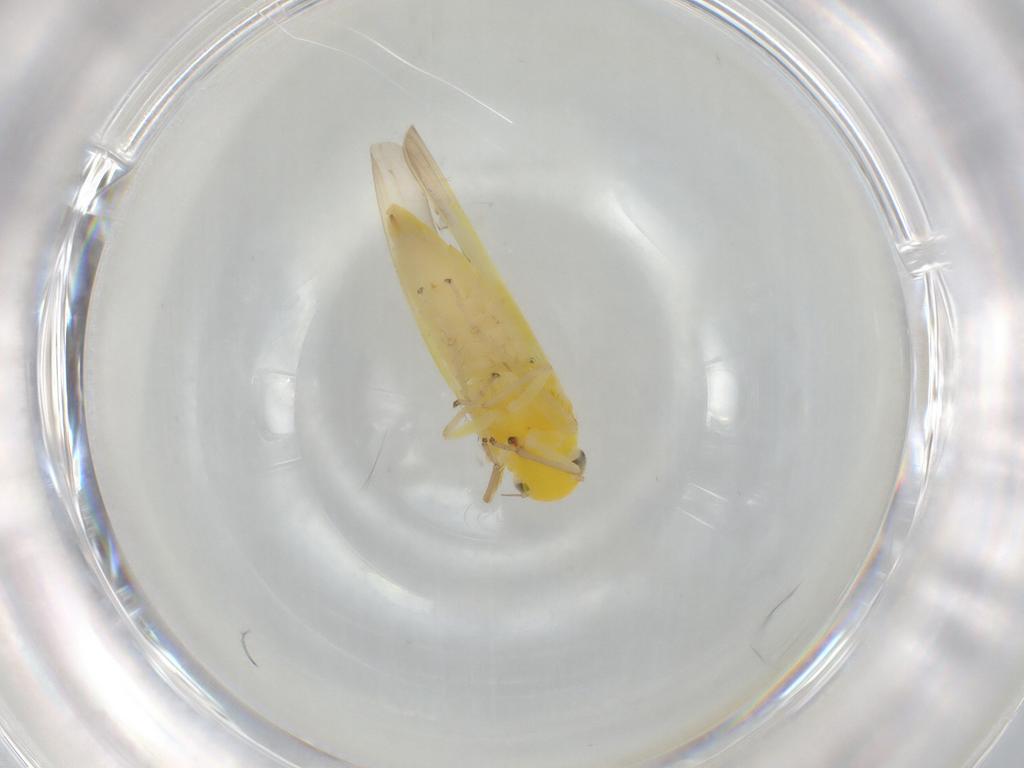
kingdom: Animalia
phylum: Arthropoda
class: Insecta
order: Hemiptera
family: Cicadellidae
